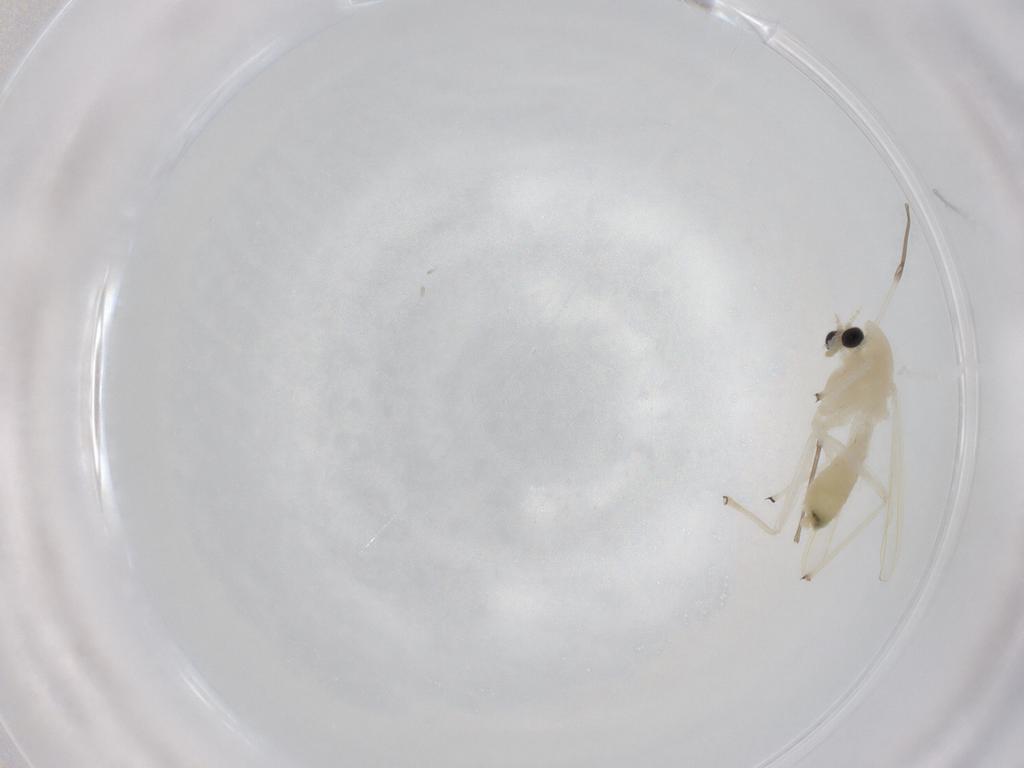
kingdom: Animalia
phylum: Arthropoda
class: Insecta
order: Diptera
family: Chironomidae
